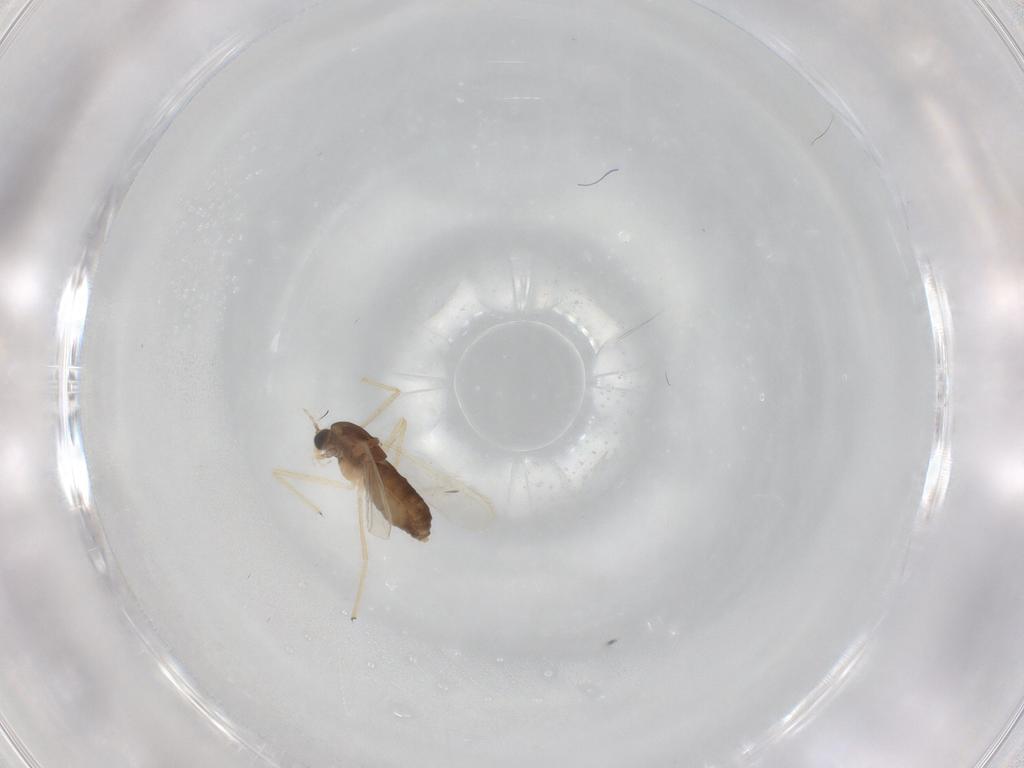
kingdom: Animalia
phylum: Arthropoda
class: Insecta
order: Diptera
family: Chironomidae
